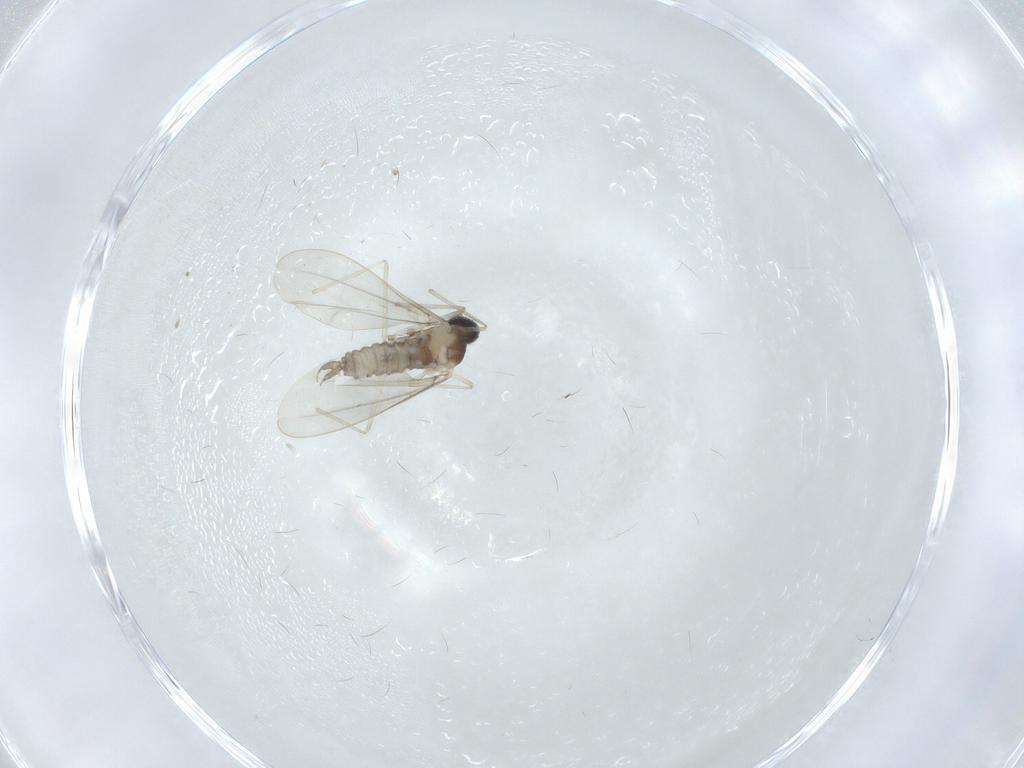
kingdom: Animalia
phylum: Arthropoda
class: Insecta
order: Diptera
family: Cecidomyiidae
